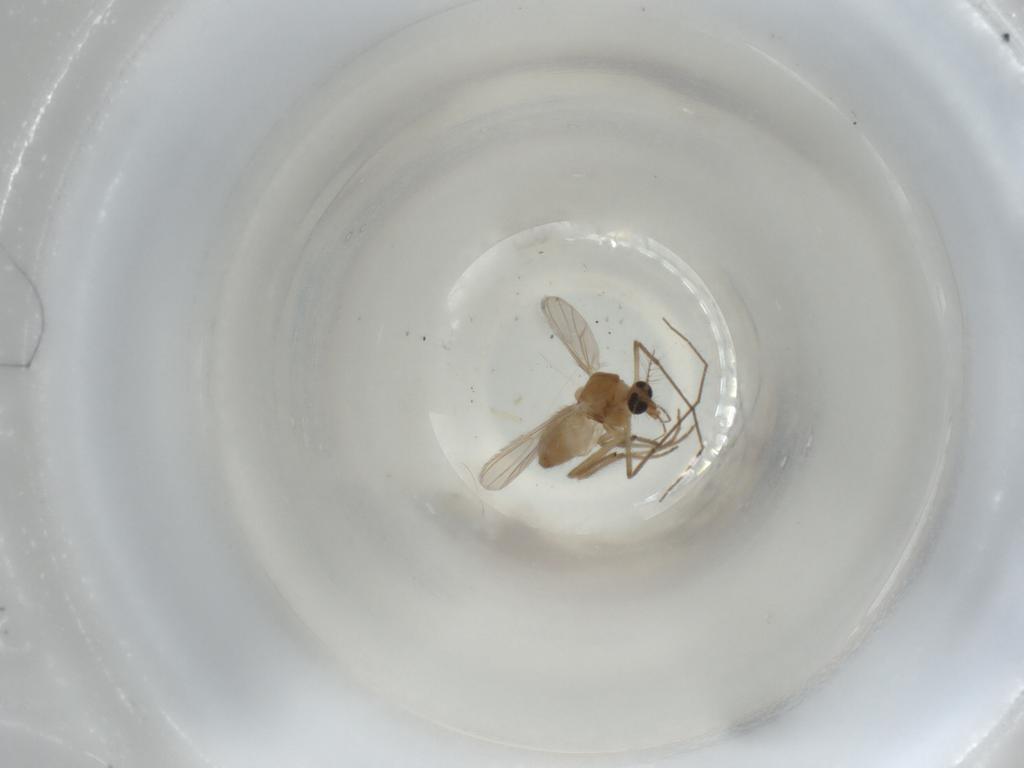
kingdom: Animalia
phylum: Arthropoda
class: Insecta
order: Diptera
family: Chironomidae
